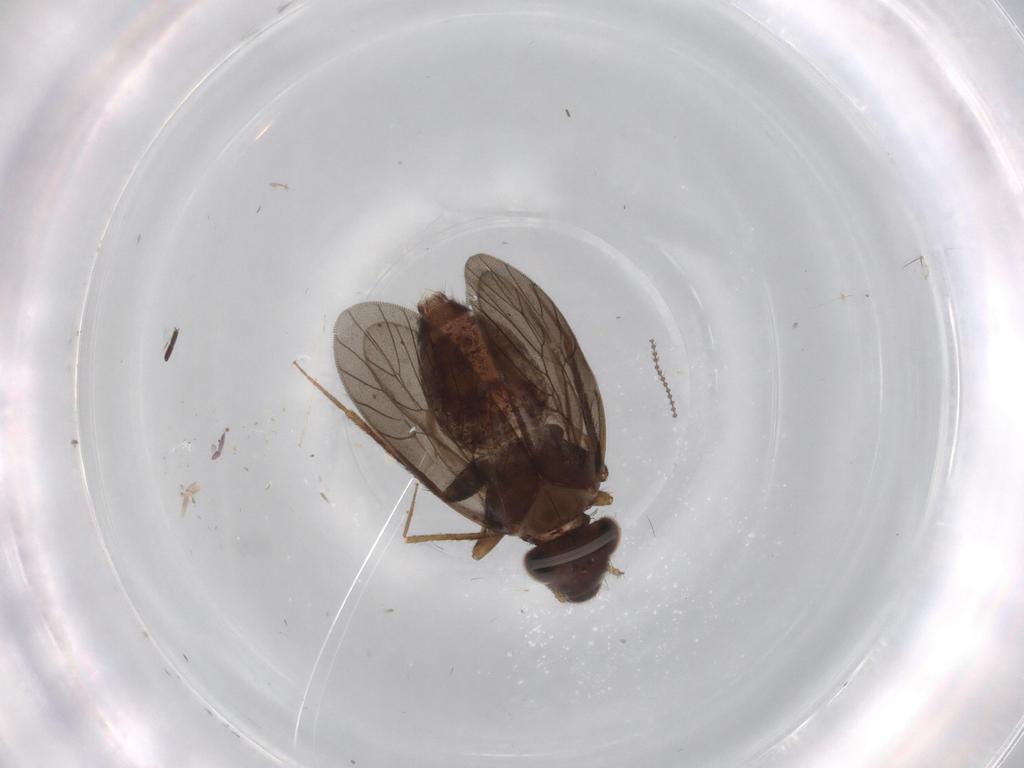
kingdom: Animalia
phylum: Arthropoda
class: Insecta
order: Psocodea
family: Lepidopsocidae
